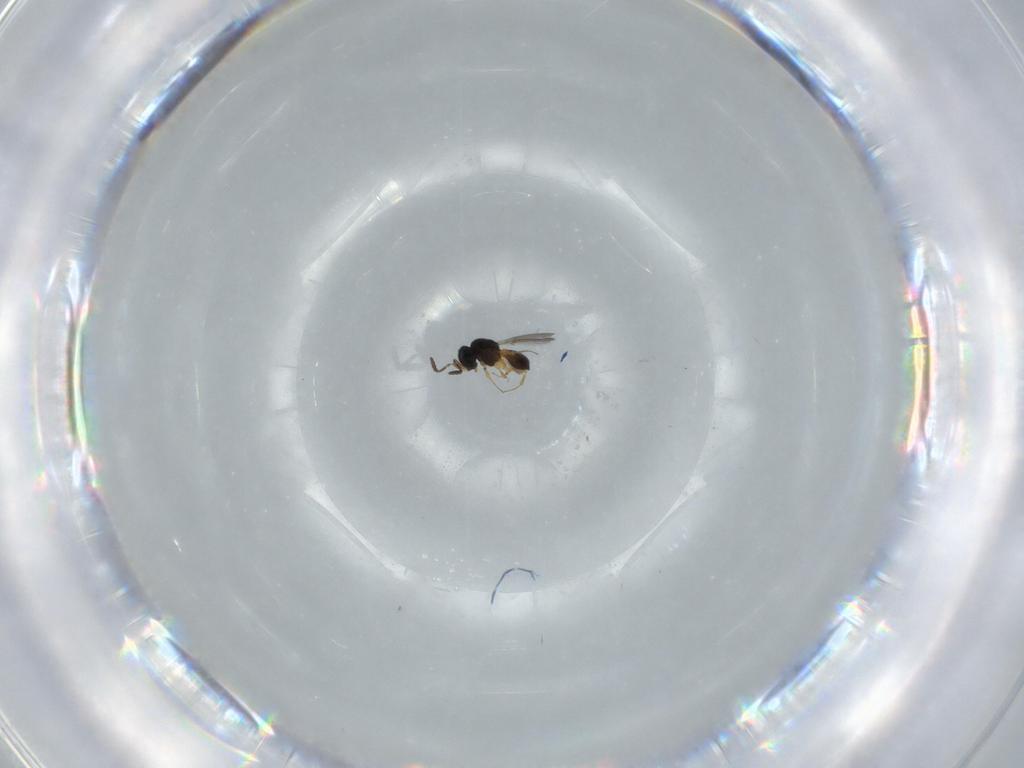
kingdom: Animalia
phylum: Arthropoda
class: Insecta
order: Hymenoptera
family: Scelionidae
